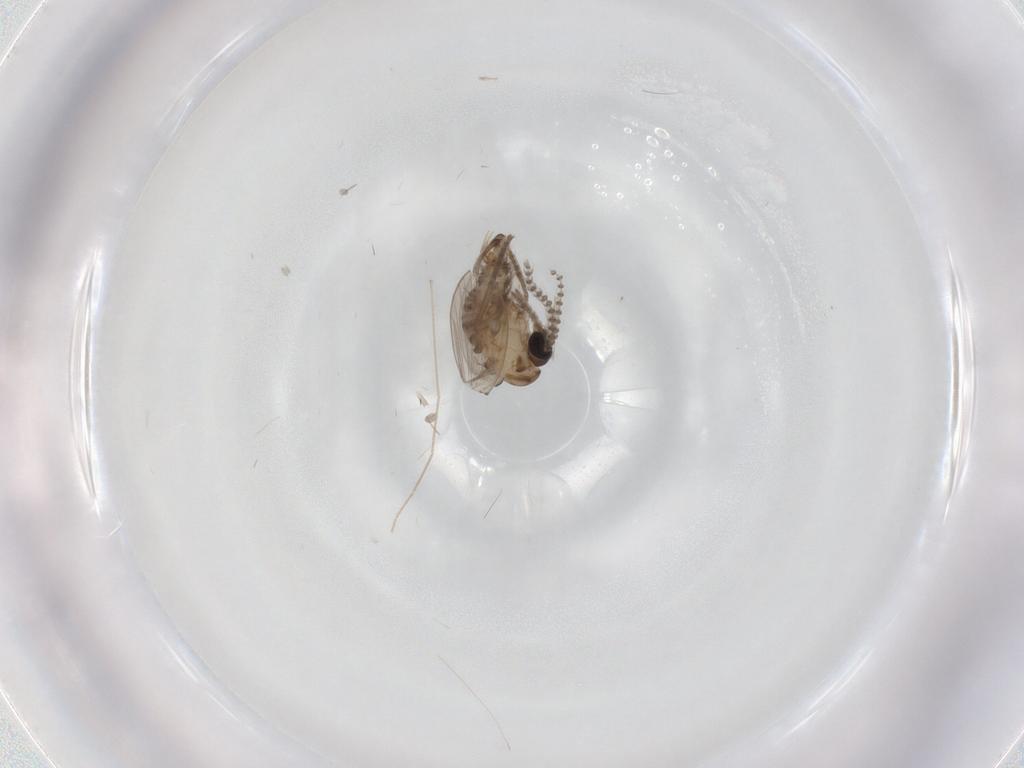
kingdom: Animalia
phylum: Arthropoda
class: Insecta
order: Diptera
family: Psychodidae
